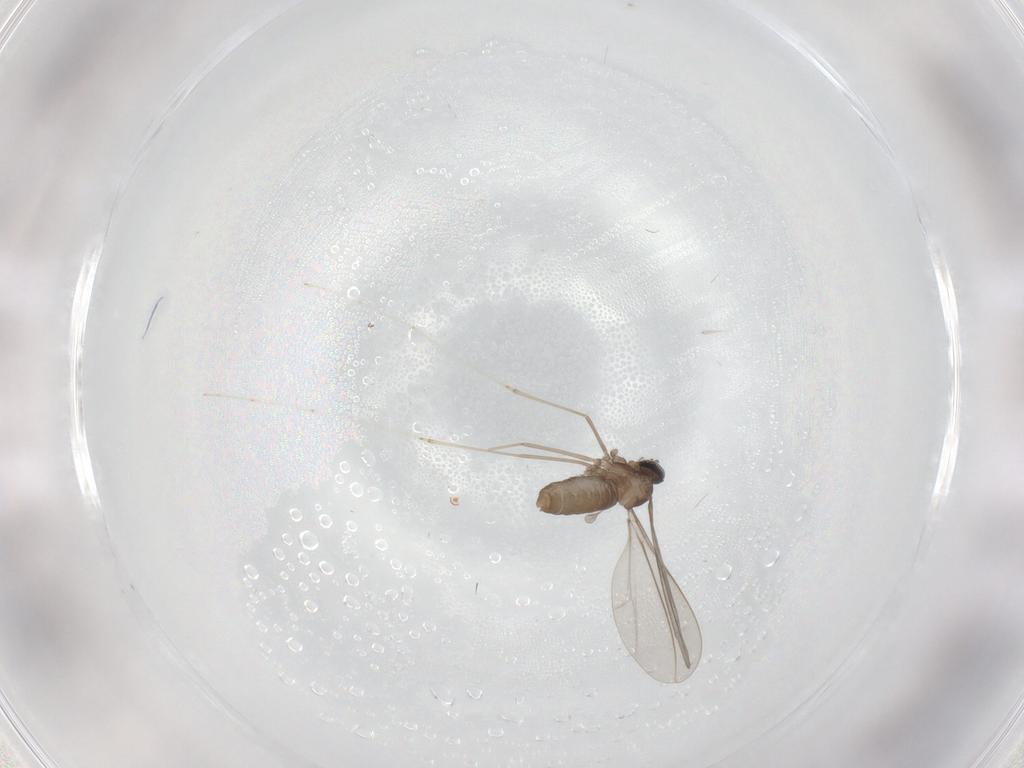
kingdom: Animalia
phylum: Arthropoda
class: Insecta
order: Diptera
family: Cecidomyiidae
